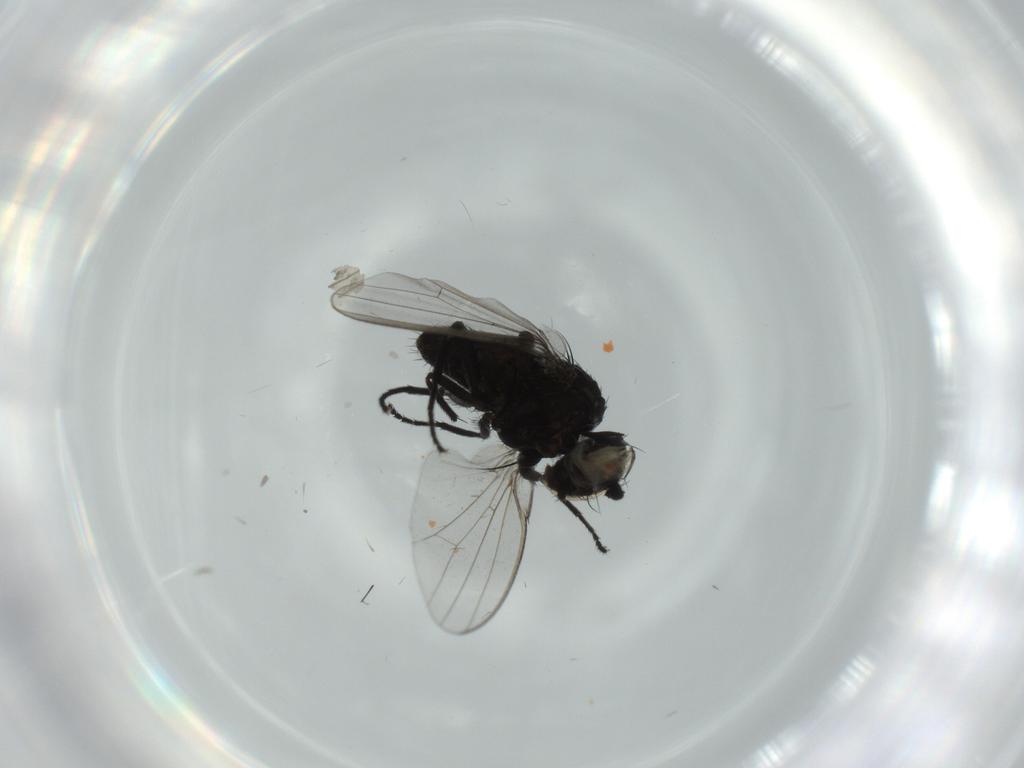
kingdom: Animalia
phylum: Arthropoda
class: Insecta
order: Diptera
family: Milichiidae
